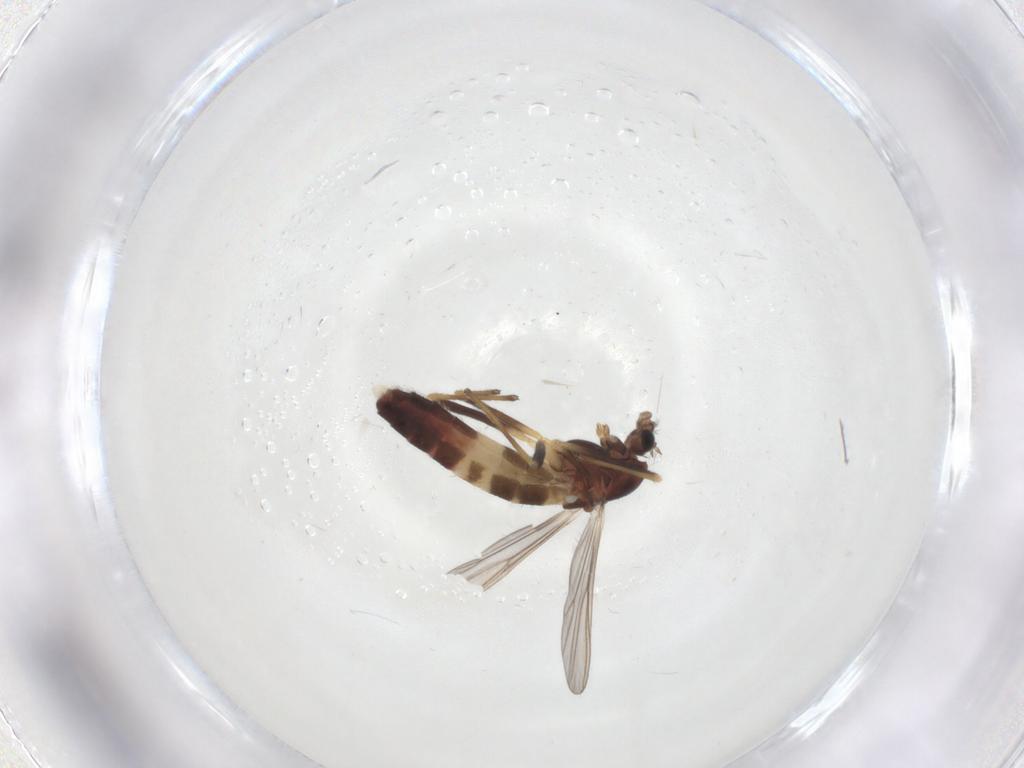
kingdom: Animalia
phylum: Arthropoda
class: Insecta
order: Diptera
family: Chironomidae
